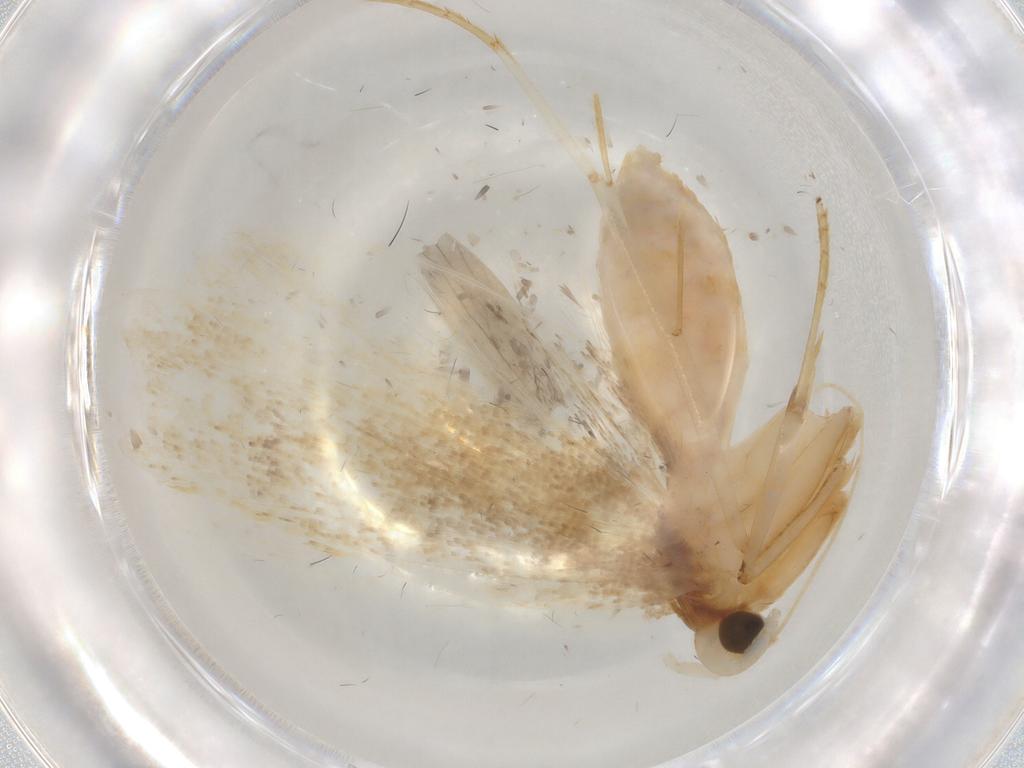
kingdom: Animalia
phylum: Arthropoda
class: Insecta
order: Lepidoptera
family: Lecithoceridae
